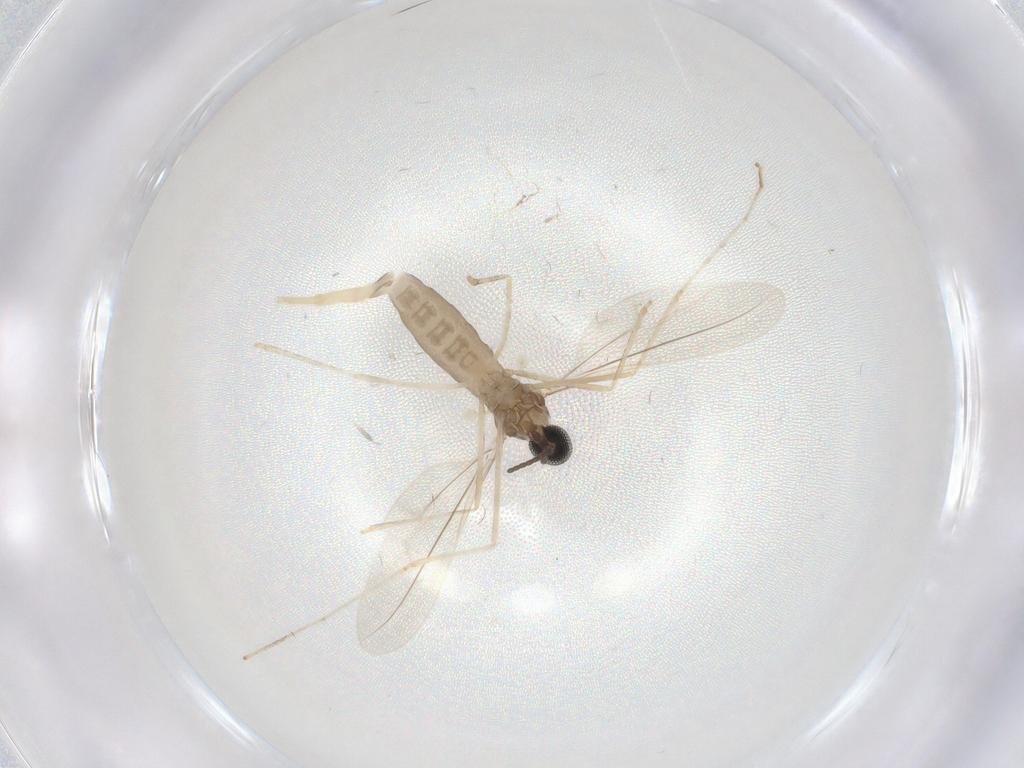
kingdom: Animalia
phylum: Arthropoda
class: Insecta
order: Diptera
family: Cecidomyiidae
